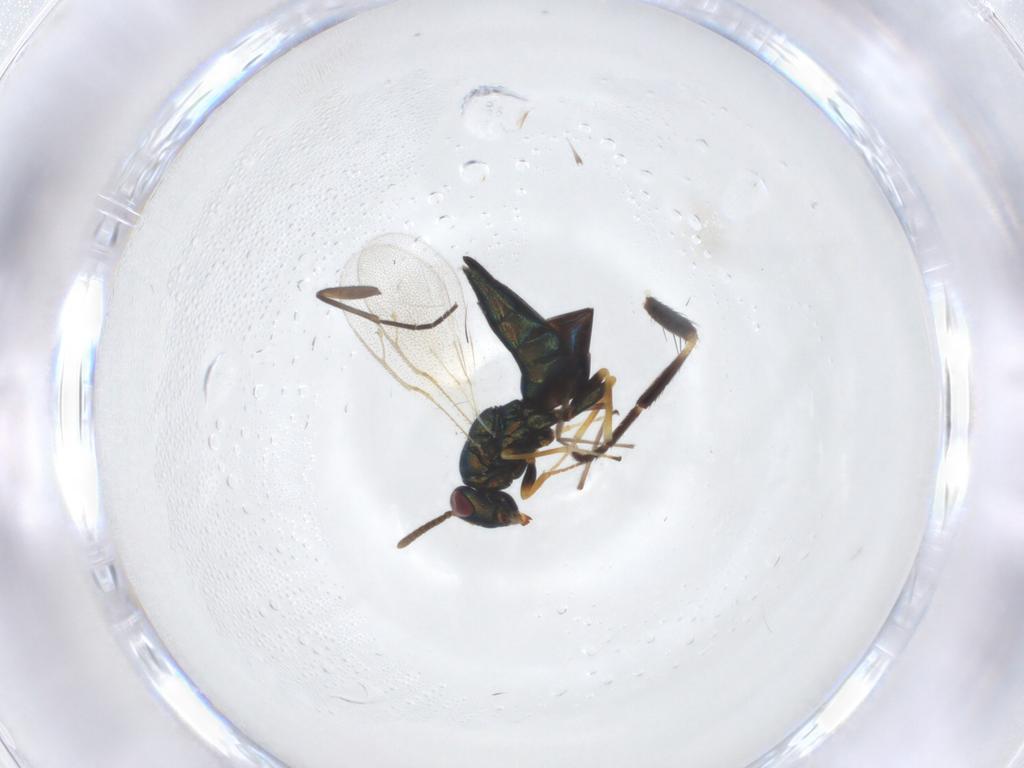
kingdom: Animalia
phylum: Arthropoda
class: Insecta
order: Hymenoptera
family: Pteromalidae
